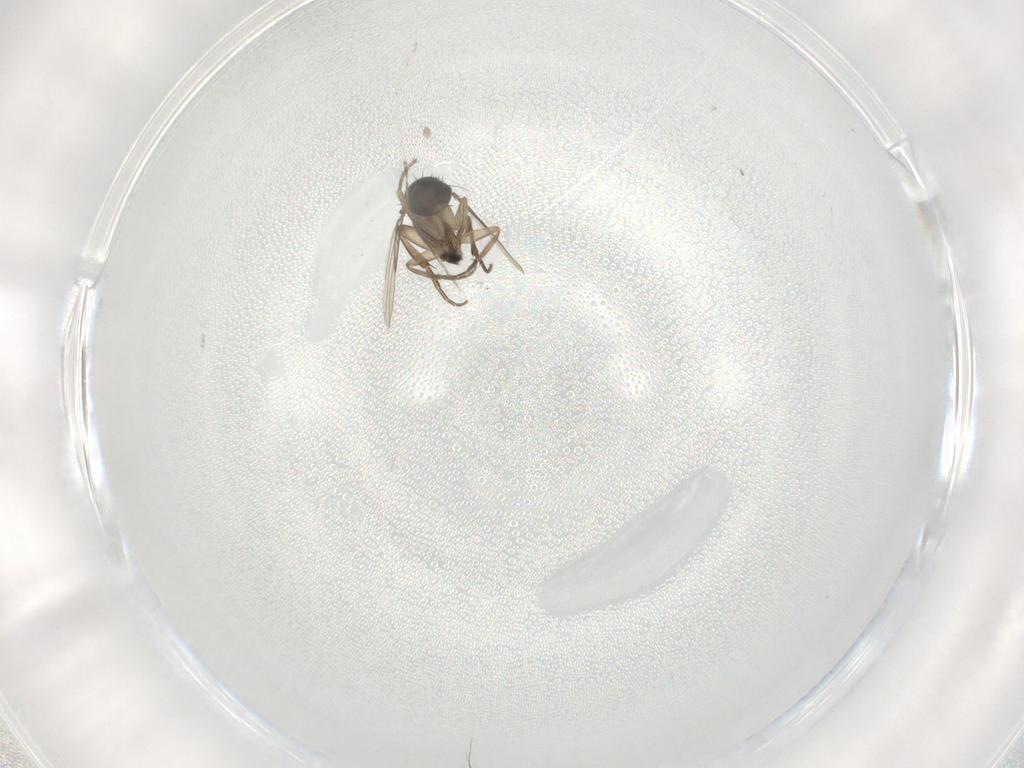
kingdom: Animalia
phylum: Arthropoda
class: Insecta
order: Diptera
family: Phoridae
